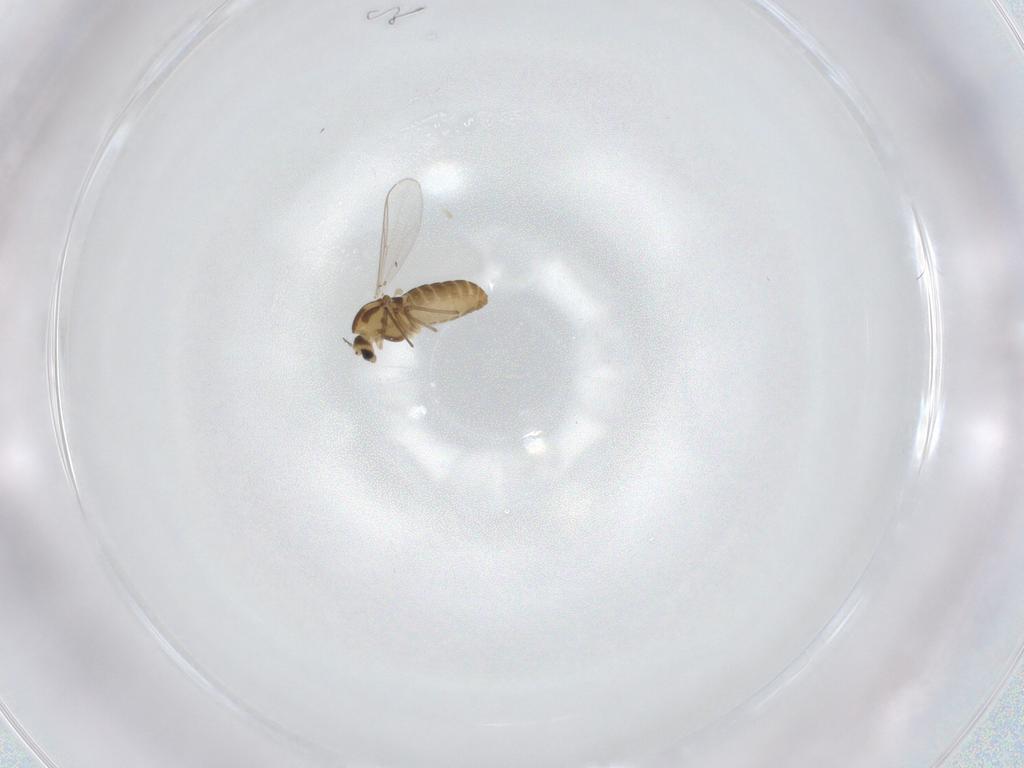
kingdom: Animalia
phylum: Arthropoda
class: Insecta
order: Diptera
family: Chironomidae
